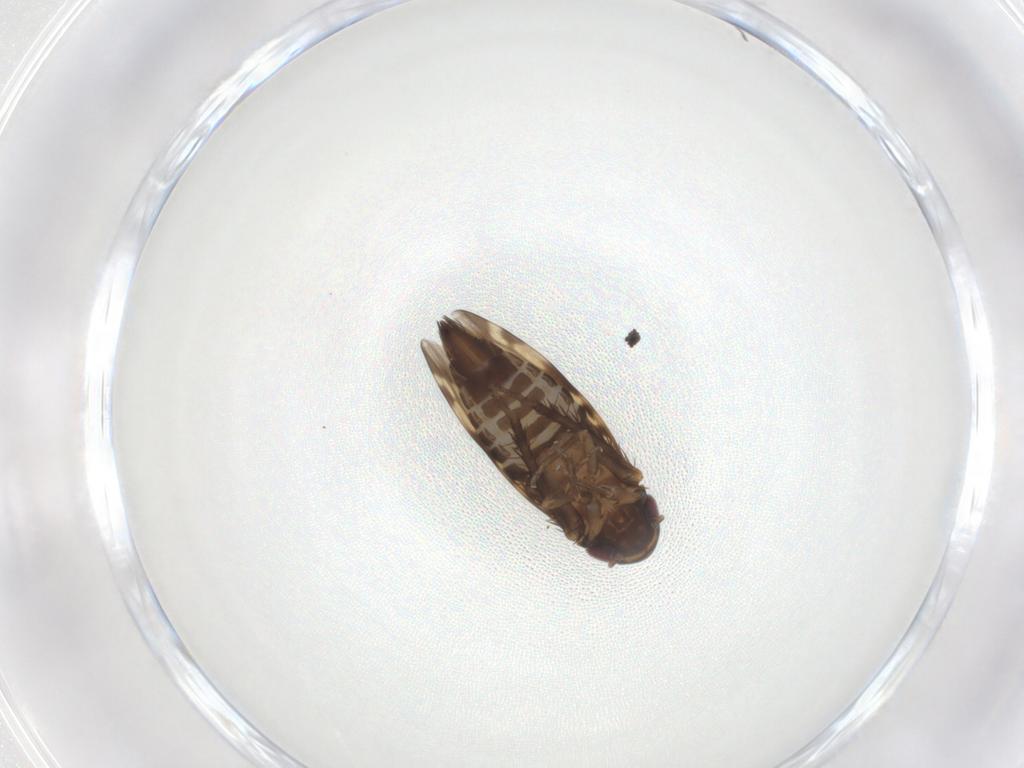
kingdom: Animalia
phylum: Arthropoda
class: Insecta
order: Hemiptera
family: Cicadellidae
